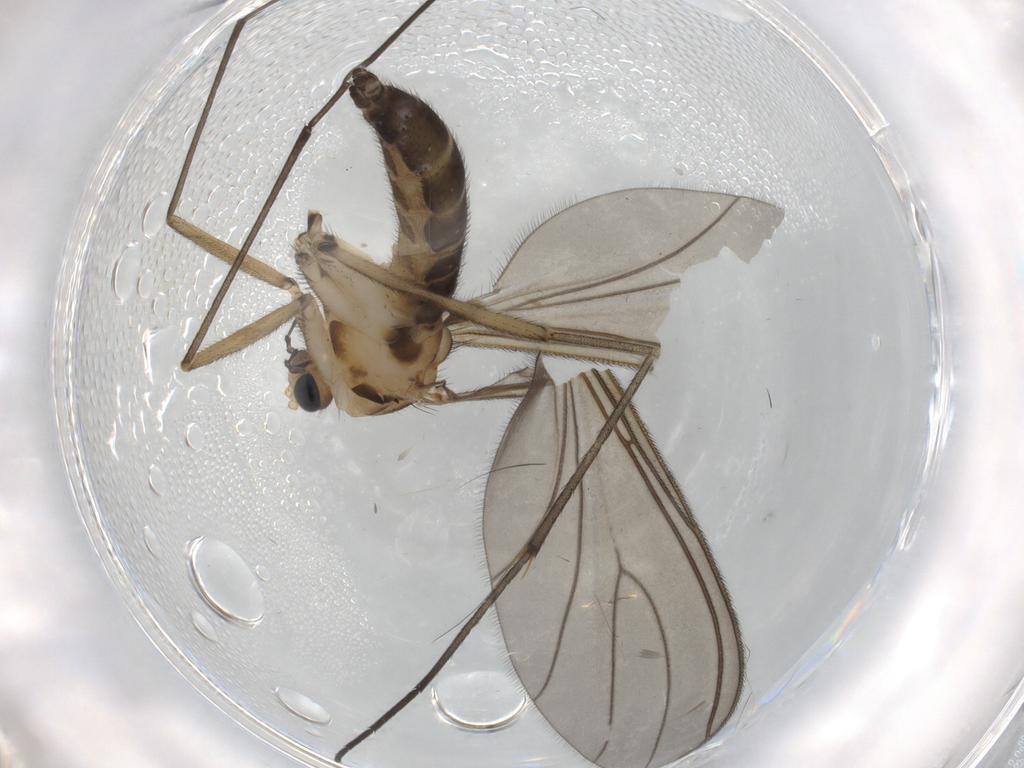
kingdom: Animalia
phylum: Arthropoda
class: Insecta
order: Diptera
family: Sciaridae
